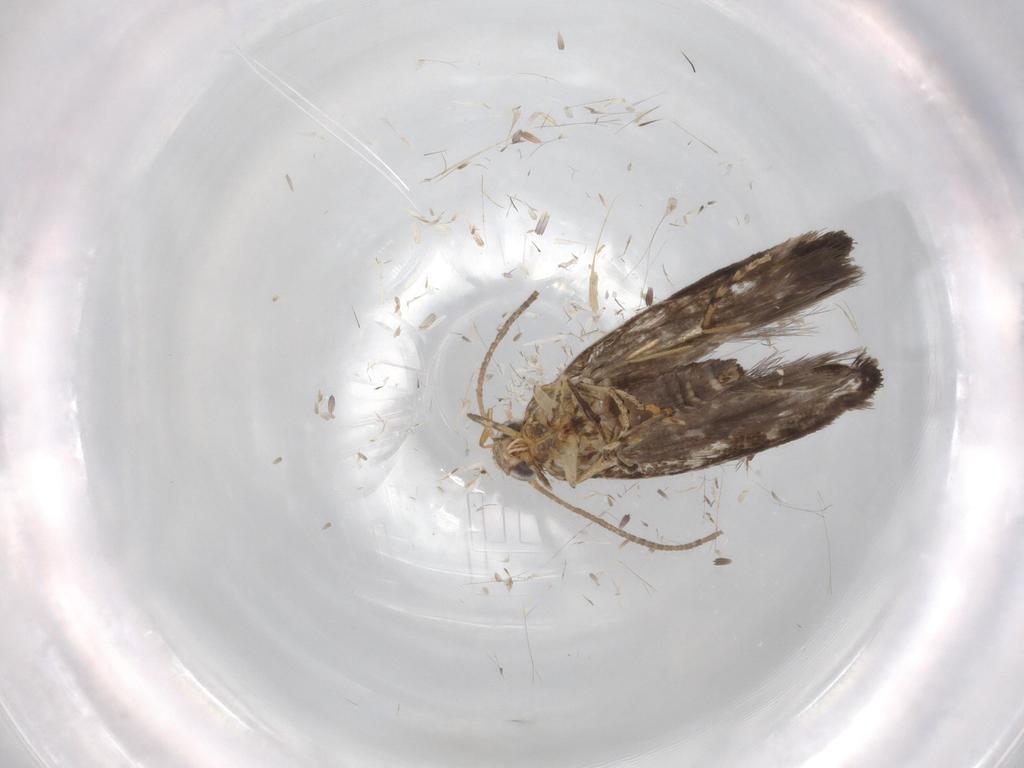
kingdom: Animalia
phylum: Arthropoda
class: Insecta
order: Lepidoptera
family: Argyresthiidae
